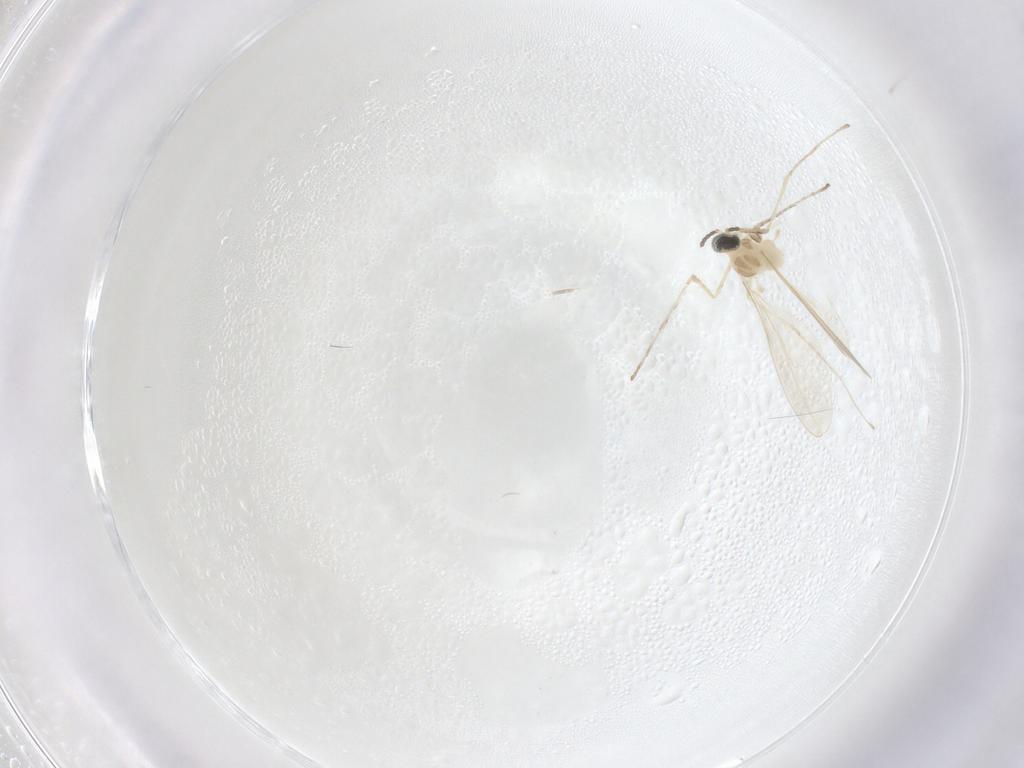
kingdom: Animalia
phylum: Arthropoda
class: Insecta
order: Diptera
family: Cecidomyiidae
